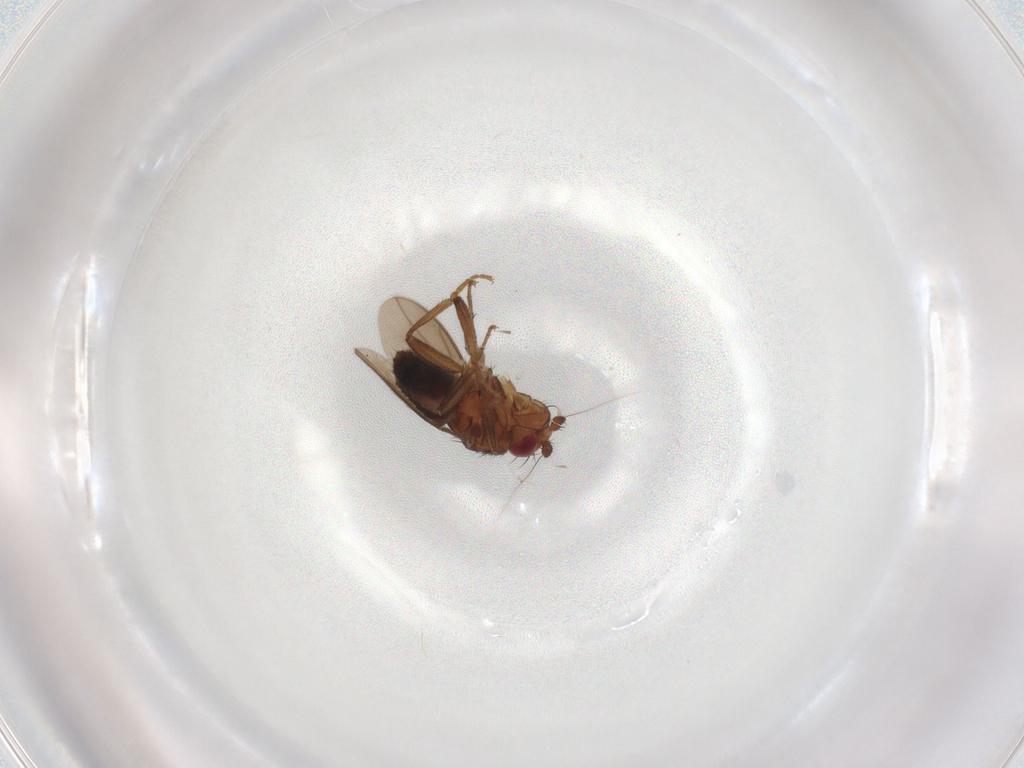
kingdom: Animalia
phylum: Arthropoda
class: Insecta
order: Diptera
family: Sphaeroceridae
